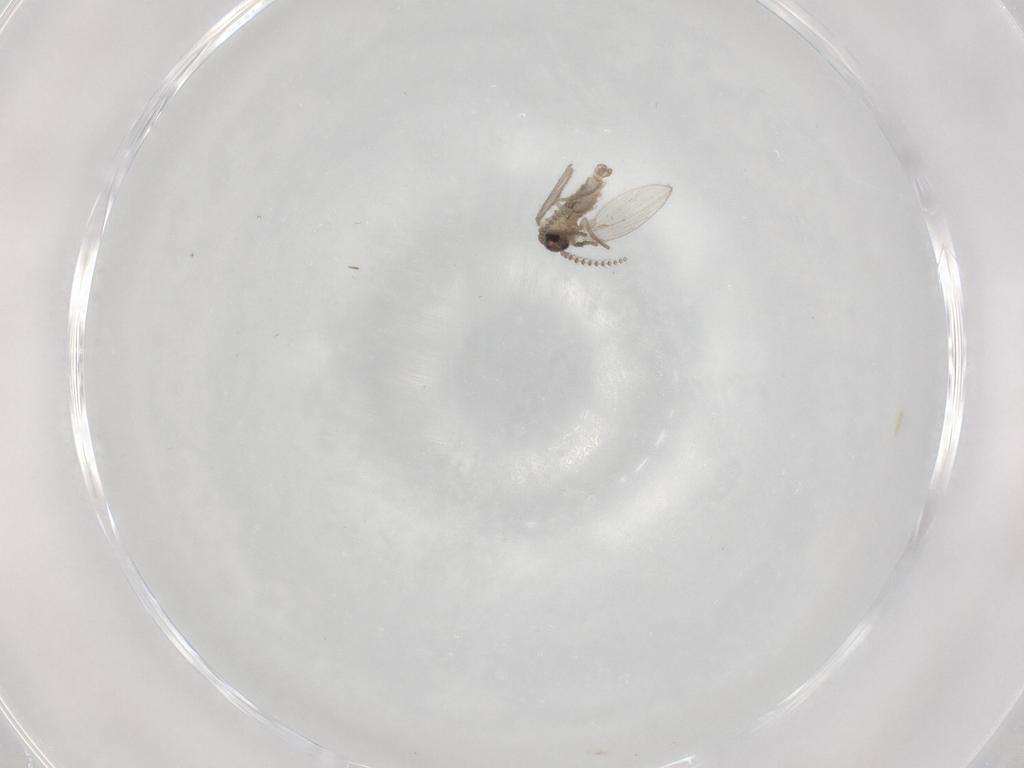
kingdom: Animalia
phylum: Arthropoda
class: Insecta
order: Diptera
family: Psychodidae
